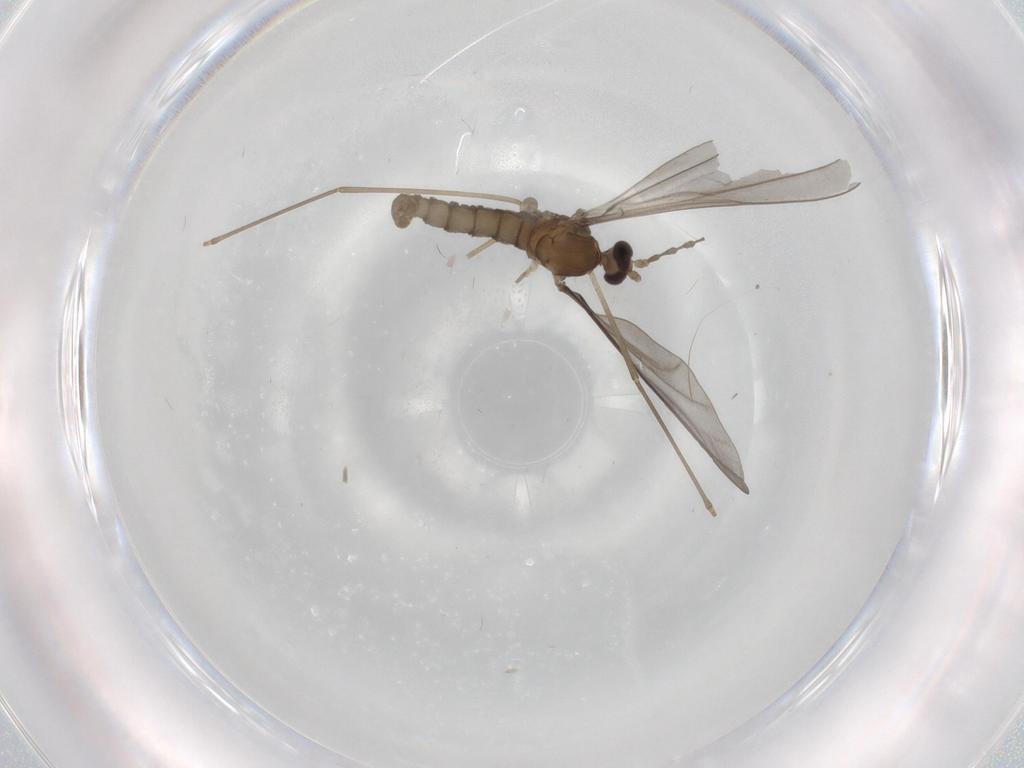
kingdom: Animalia
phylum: Arthropoda
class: Insecta
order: Diptera
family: Cecidomyiidae
